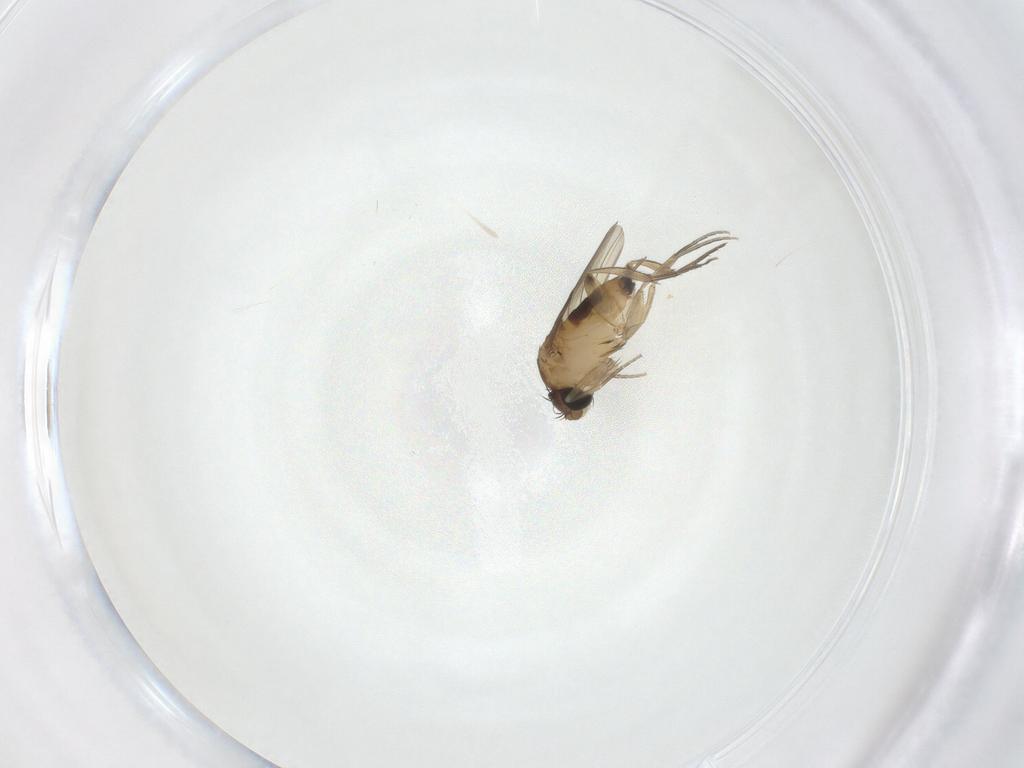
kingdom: Animalia
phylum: Arthropoda
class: Insecta
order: Diptera
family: Phoridae
